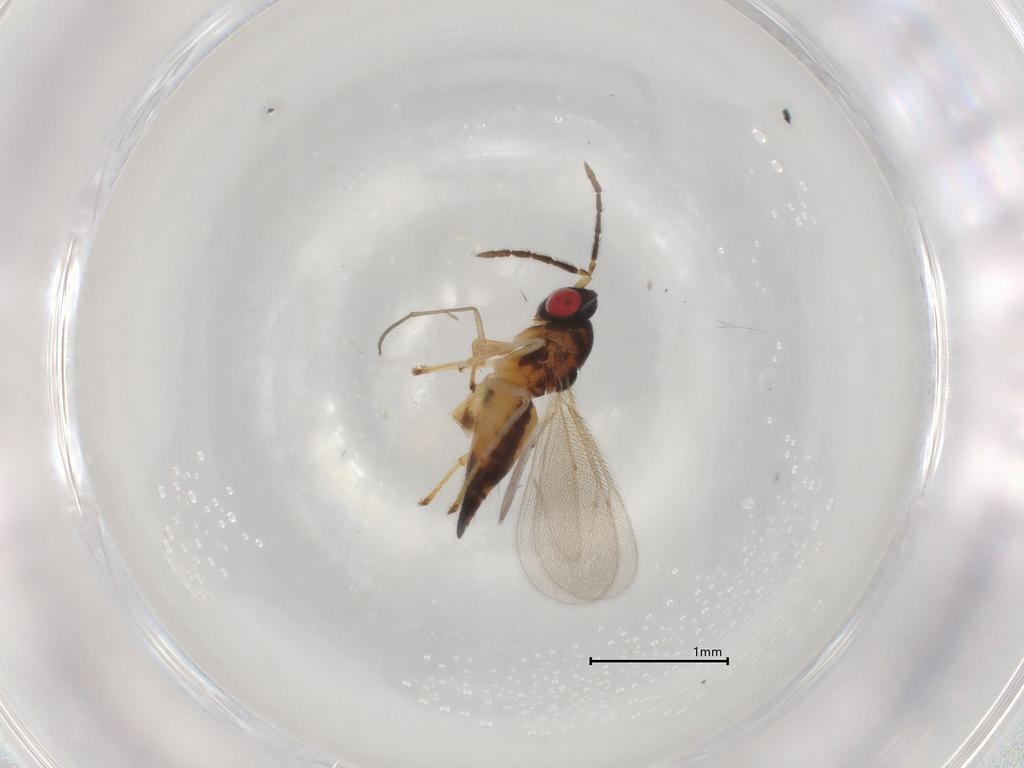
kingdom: Animalia
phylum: Arthropoda
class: Insecta
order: Hymenoptera
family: Eulophidae
